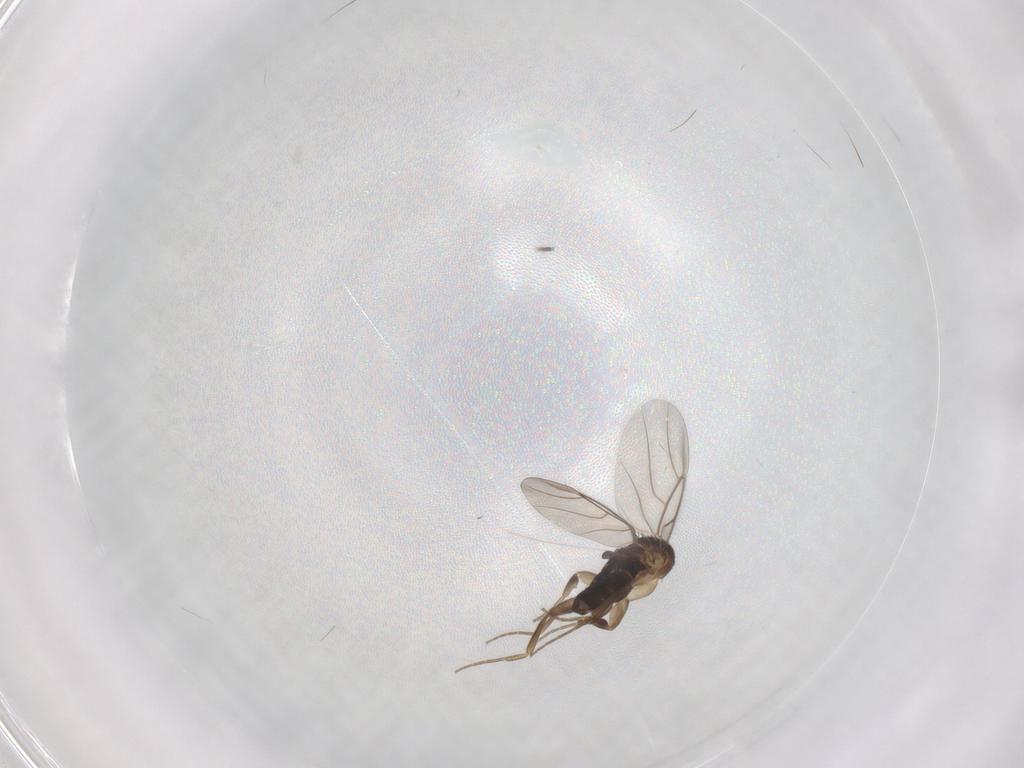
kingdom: Animalia
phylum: Arthropoda
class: Insecta
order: Diptera
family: Phoridae
